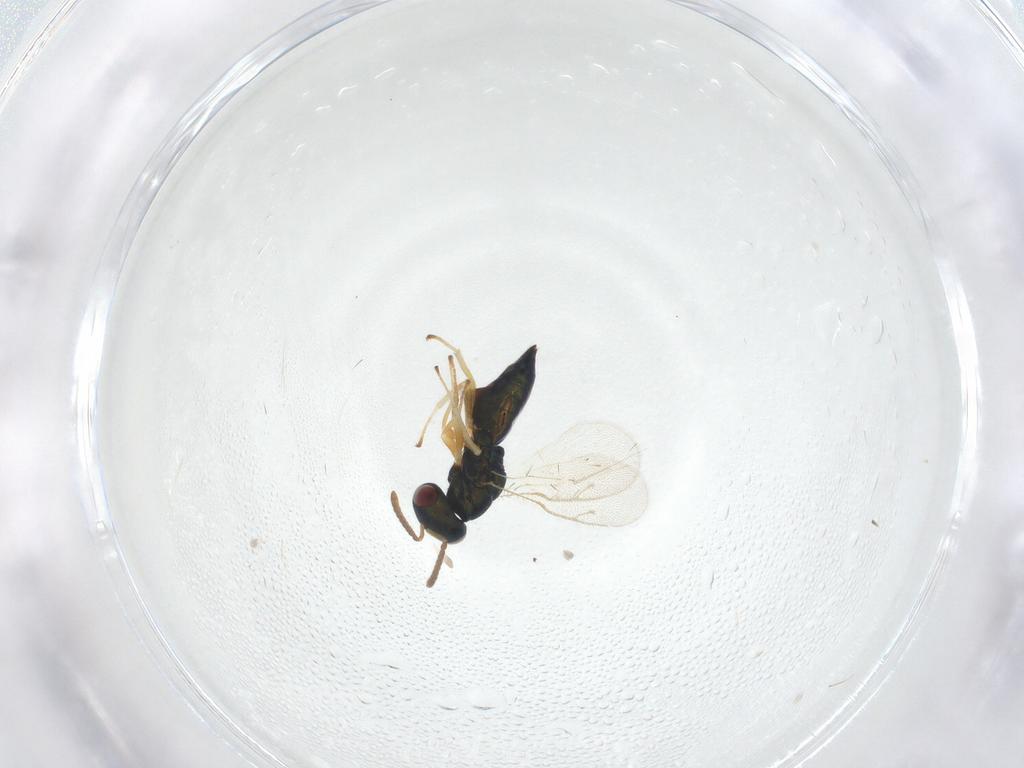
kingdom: Animalia
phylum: Arthropoda
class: Insecta
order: Hymenoptera
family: Pteromalidae
